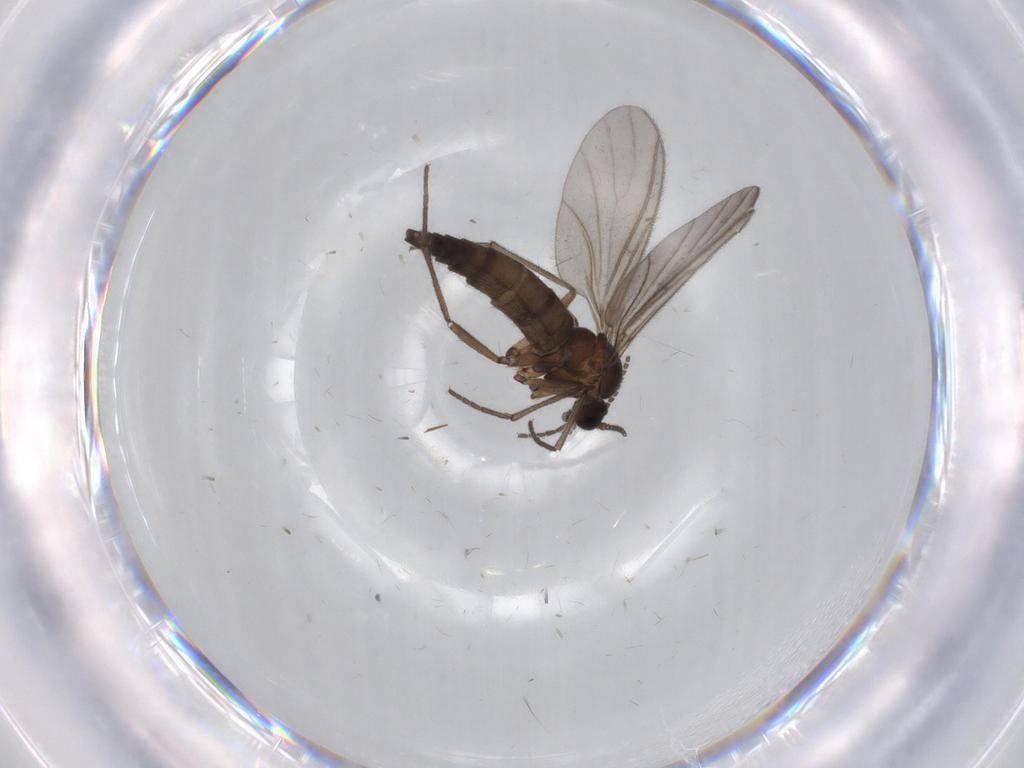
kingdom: Animalia
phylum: Arthropoda
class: Insecta
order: Diptera
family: Sciaridae
